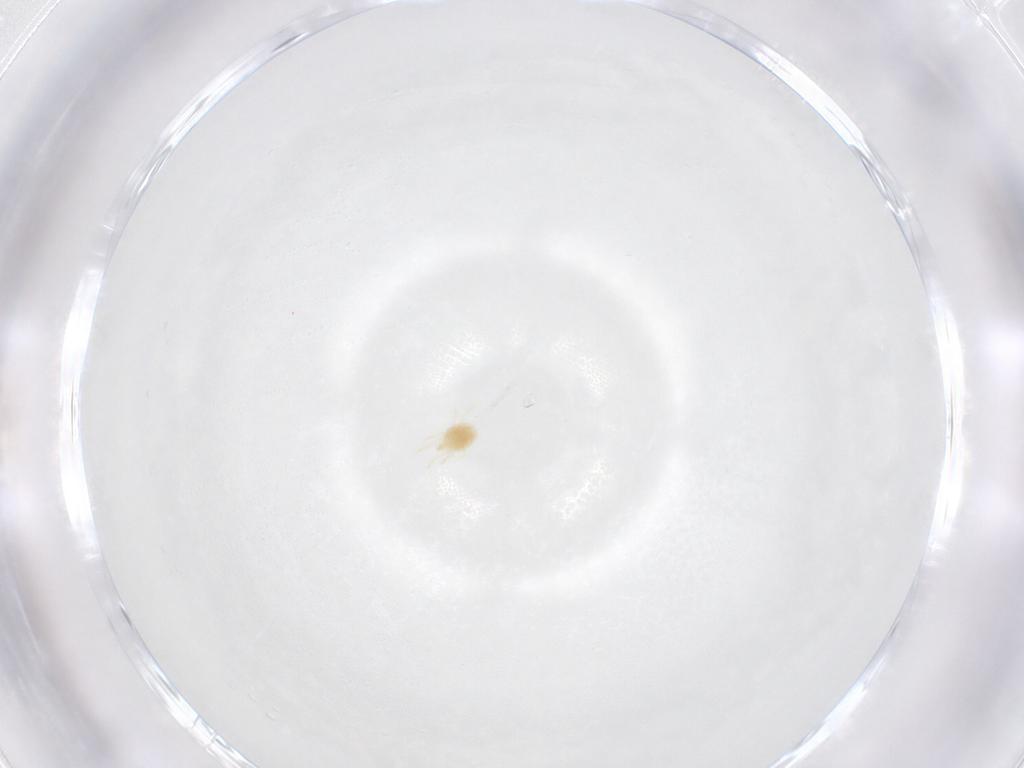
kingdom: Animalia
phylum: Arthropoda
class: Arachnida
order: Trombidiformes
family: Tetranychidae
